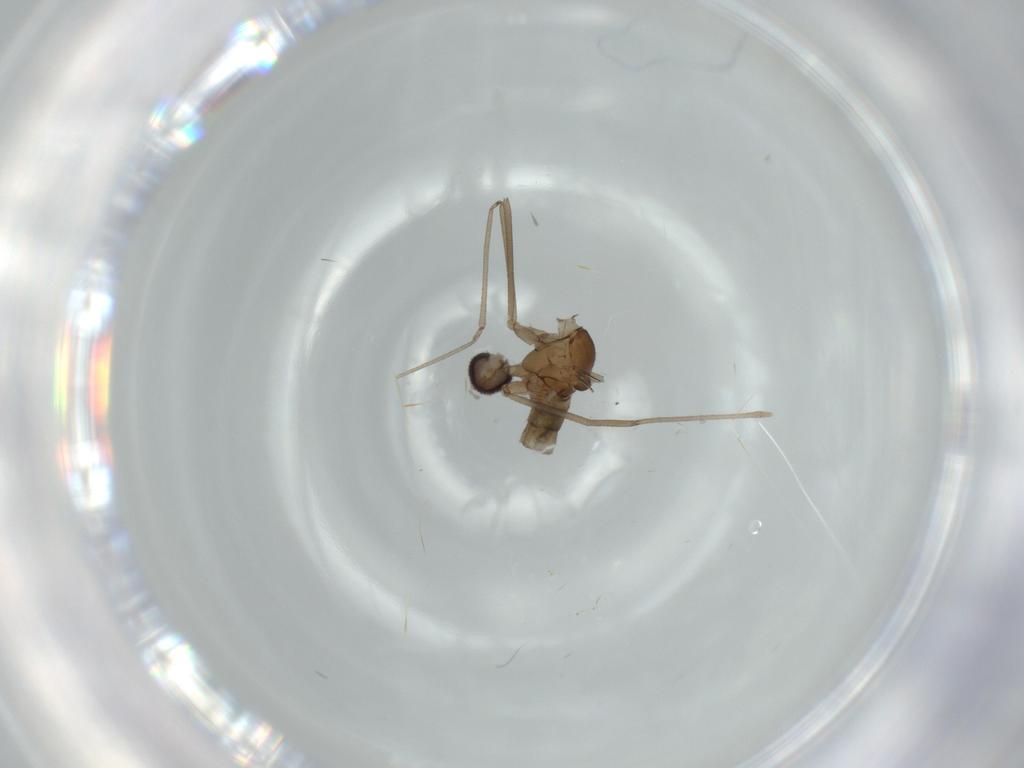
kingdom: Animalia
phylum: Arthropoda
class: Insecta
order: Diptera
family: Cecidomyiidae
